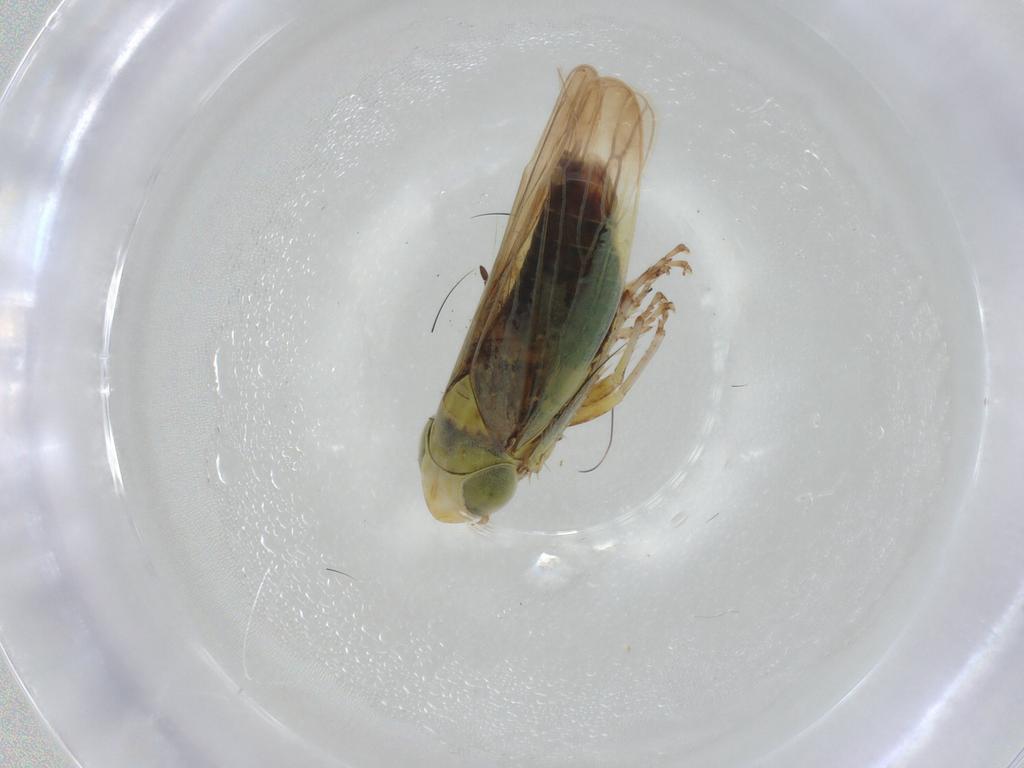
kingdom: Animalia
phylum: Arthropoda
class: Insecta
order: Hemiptera
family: Cicadellidae
